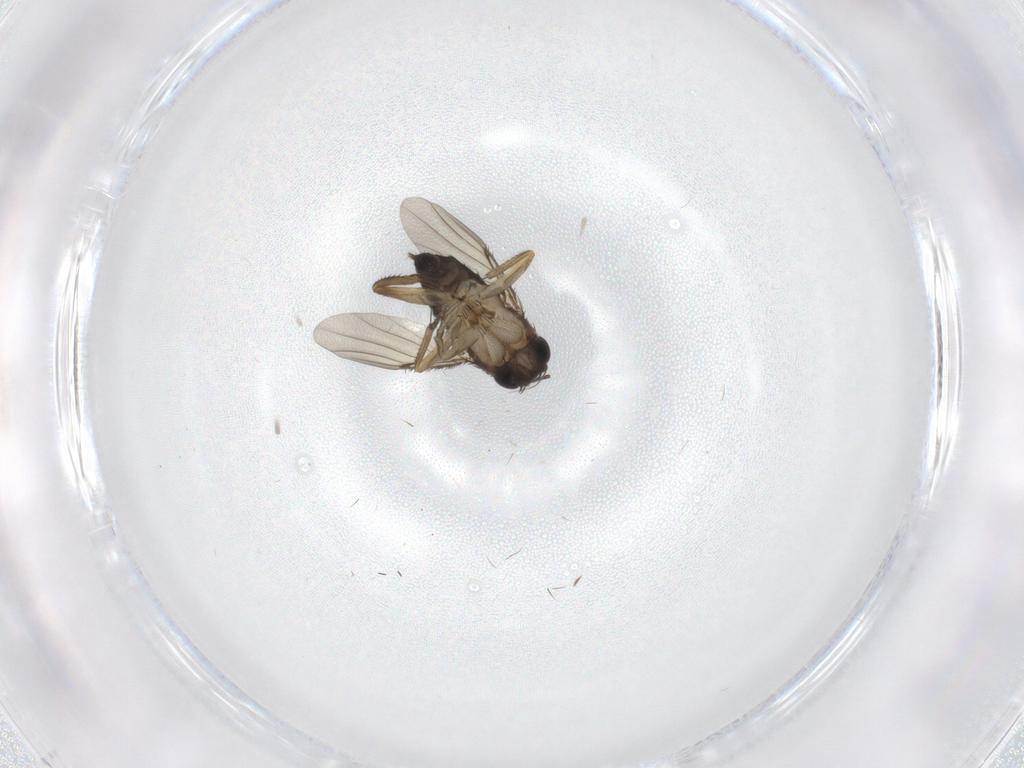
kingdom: Animalia
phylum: Arthropoda
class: Insecta
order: Diptera
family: Phoridae
